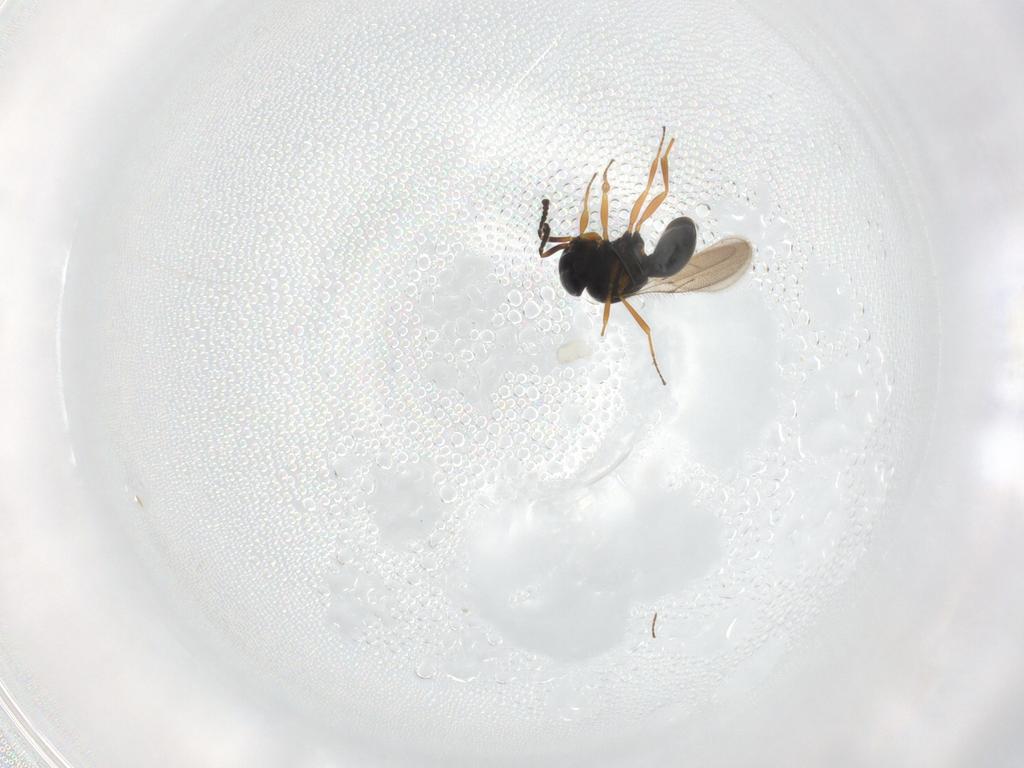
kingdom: Animalia
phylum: Arthropoda
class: Insecta
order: Hymenoptera
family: Scelionidae
